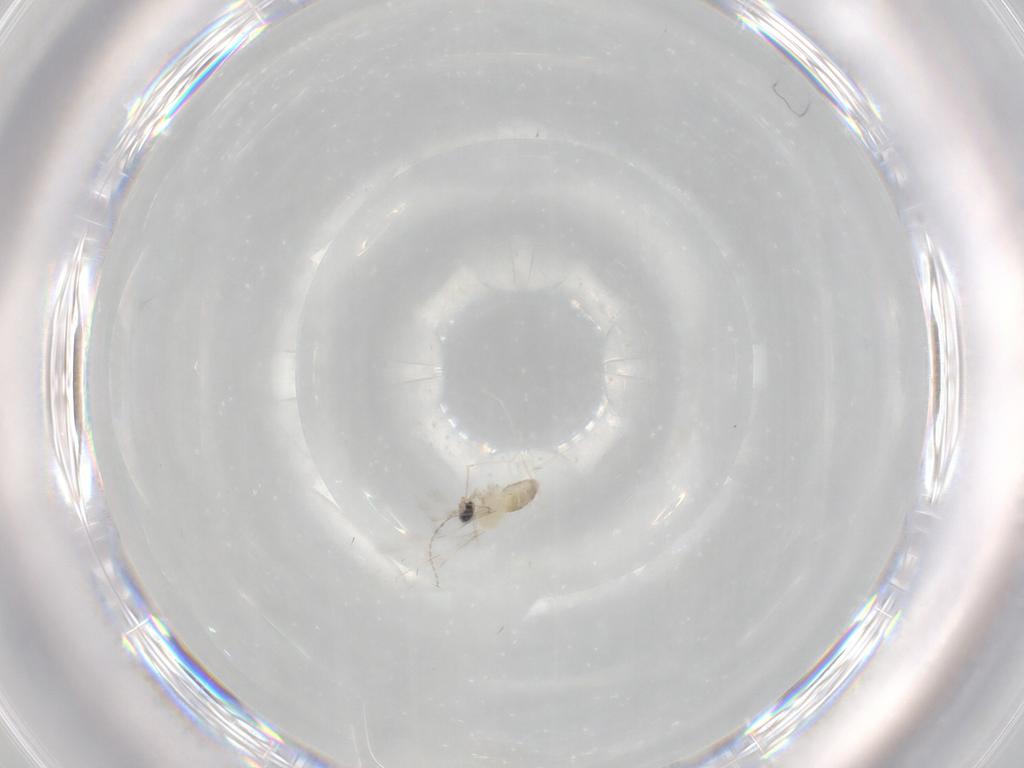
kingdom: Animalia
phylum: Arthropoda
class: Insecta
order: Diptera
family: Cecidomyiidae
